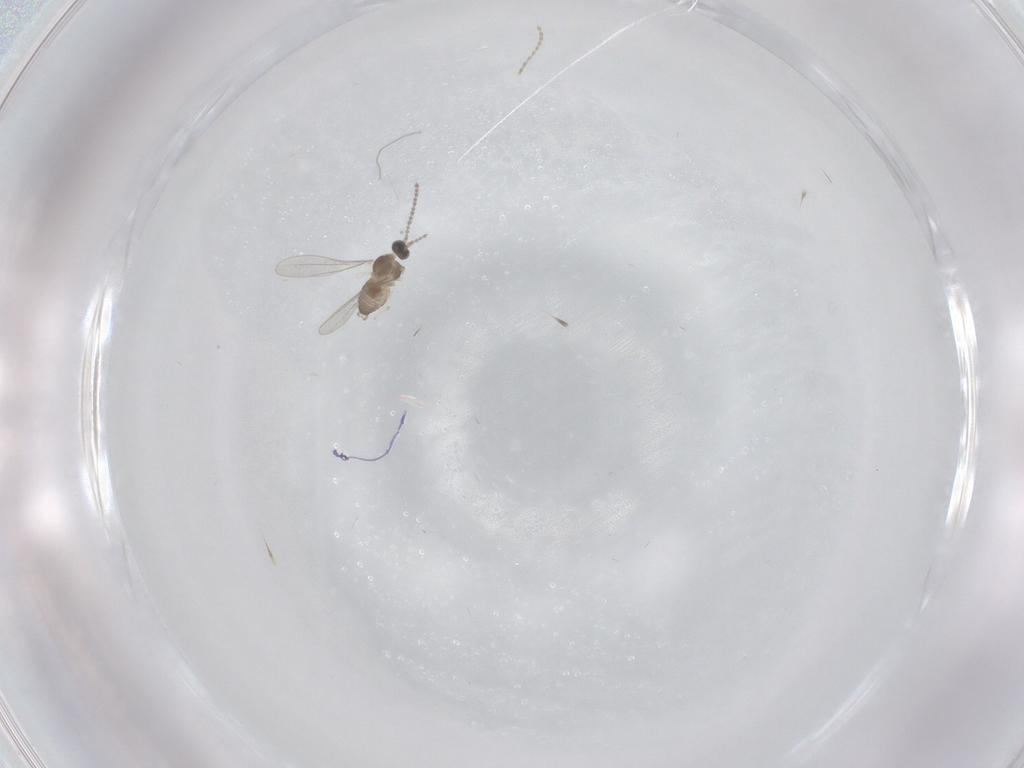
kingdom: Animalia
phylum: Arthropoda
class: Insecta
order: Diptera
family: Cecidomyiidae
